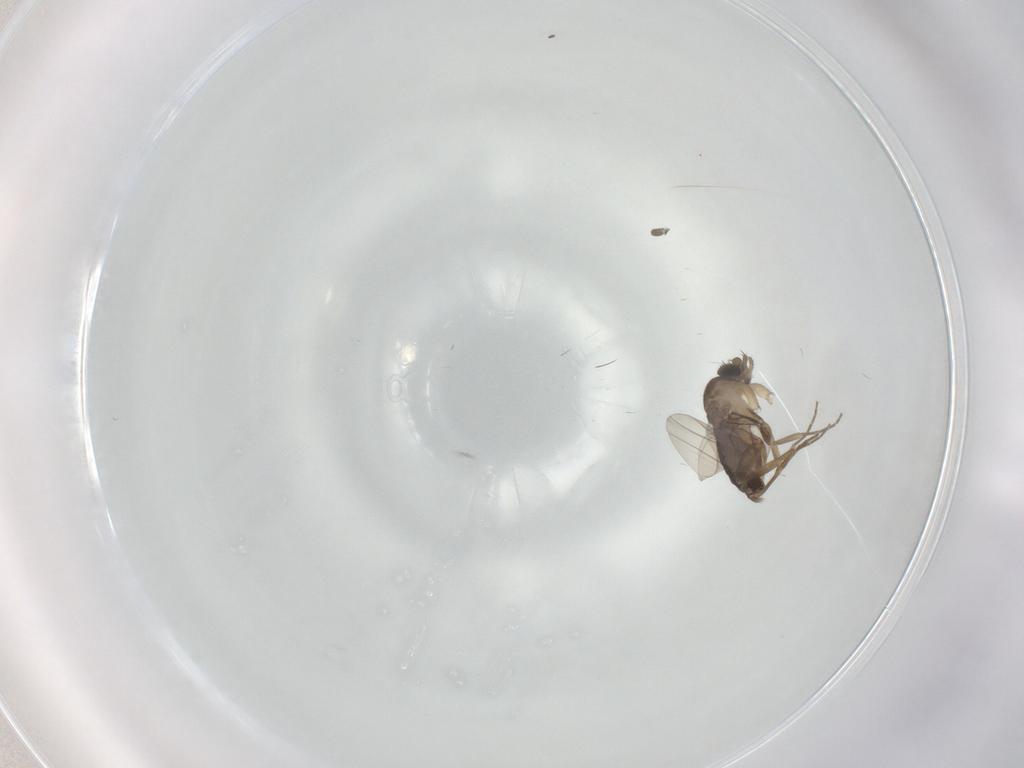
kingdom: Animalia
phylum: Arthropoda
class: Insecta
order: Diptera
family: Phoridae
